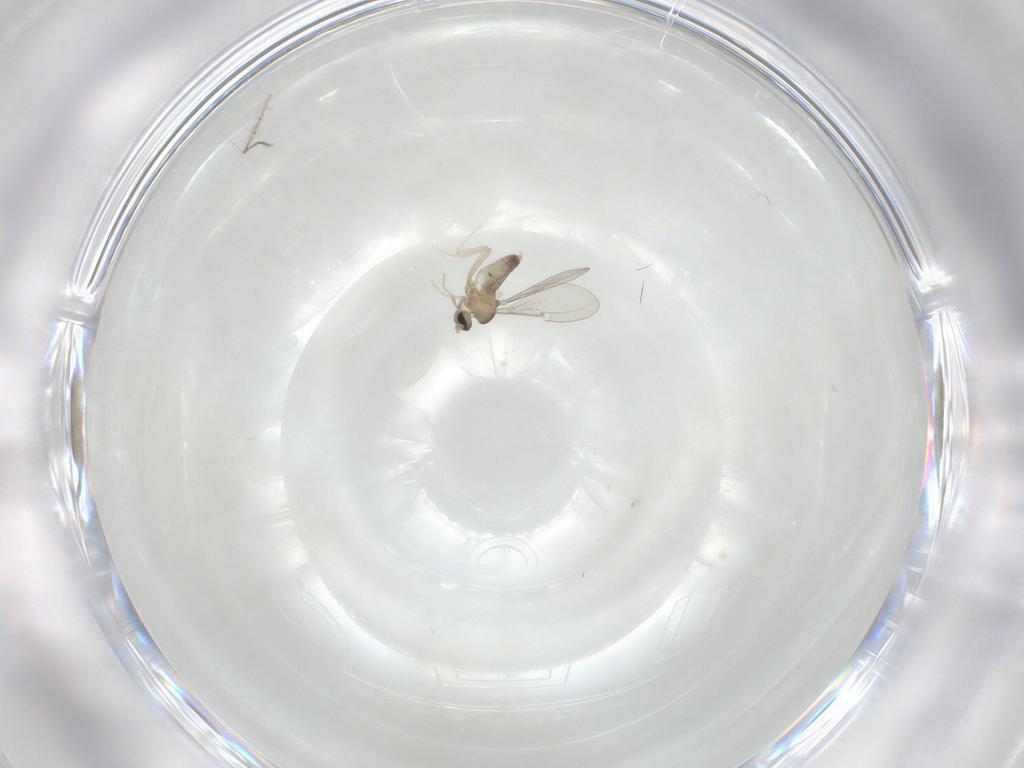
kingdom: Animalia
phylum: Arthropoda
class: Insecta
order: Diptera
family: Chironomidae
